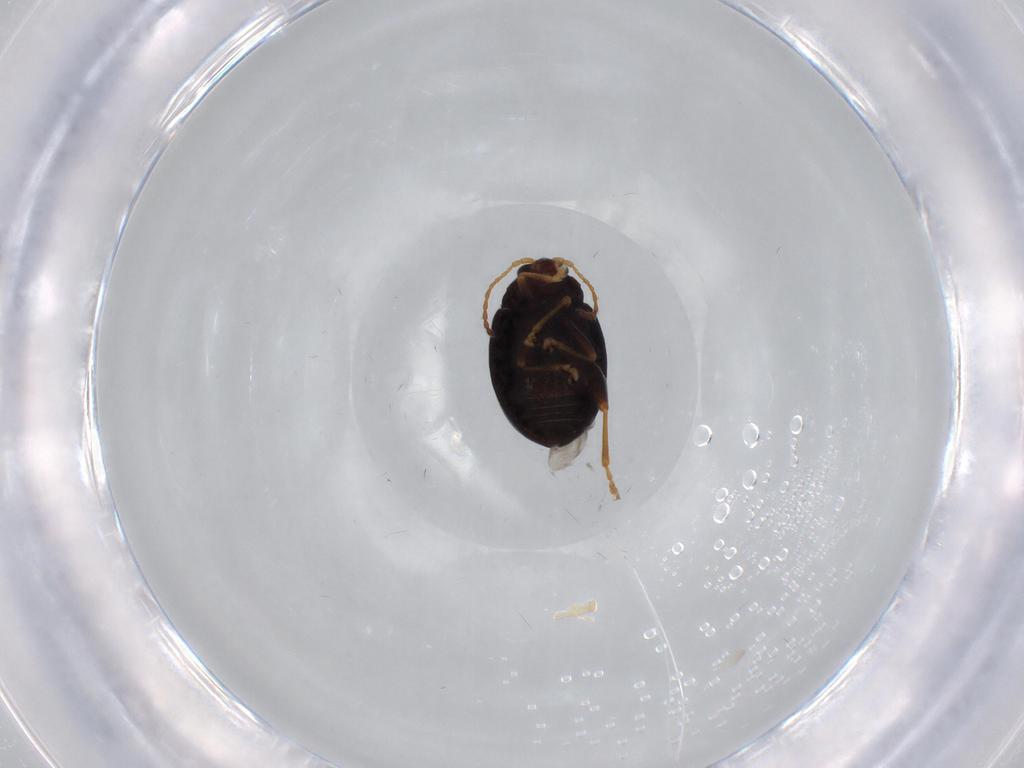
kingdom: Animalia
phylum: Arthropoda
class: Insecta
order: Coleoptera
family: Chrysomelidae
